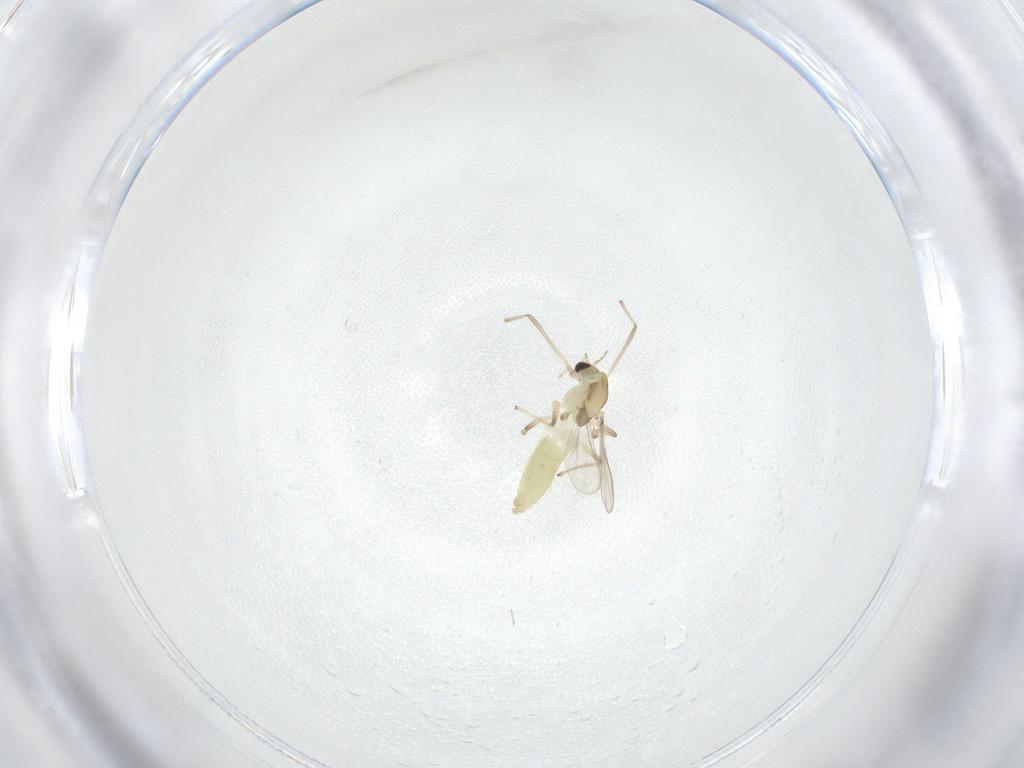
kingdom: Animalia
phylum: Arthropoda
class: Insecta
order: Diptera
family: Chironomidae
